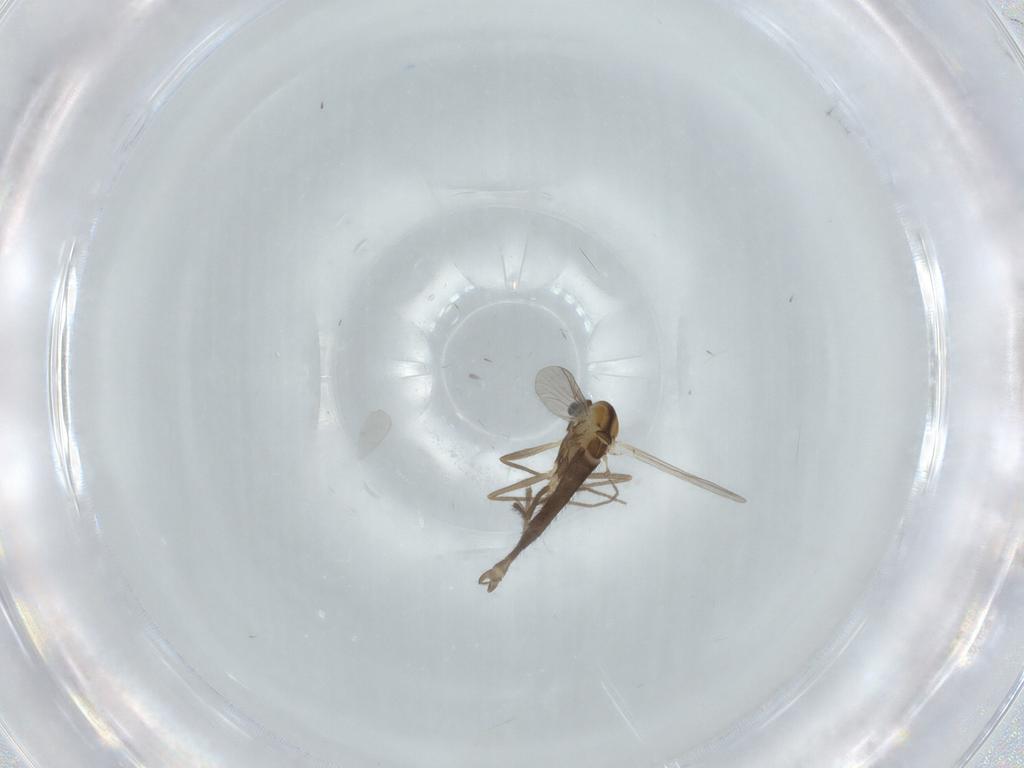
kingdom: Animalia
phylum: Arthropoda
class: Insecta
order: Diptera
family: Chironomidae
